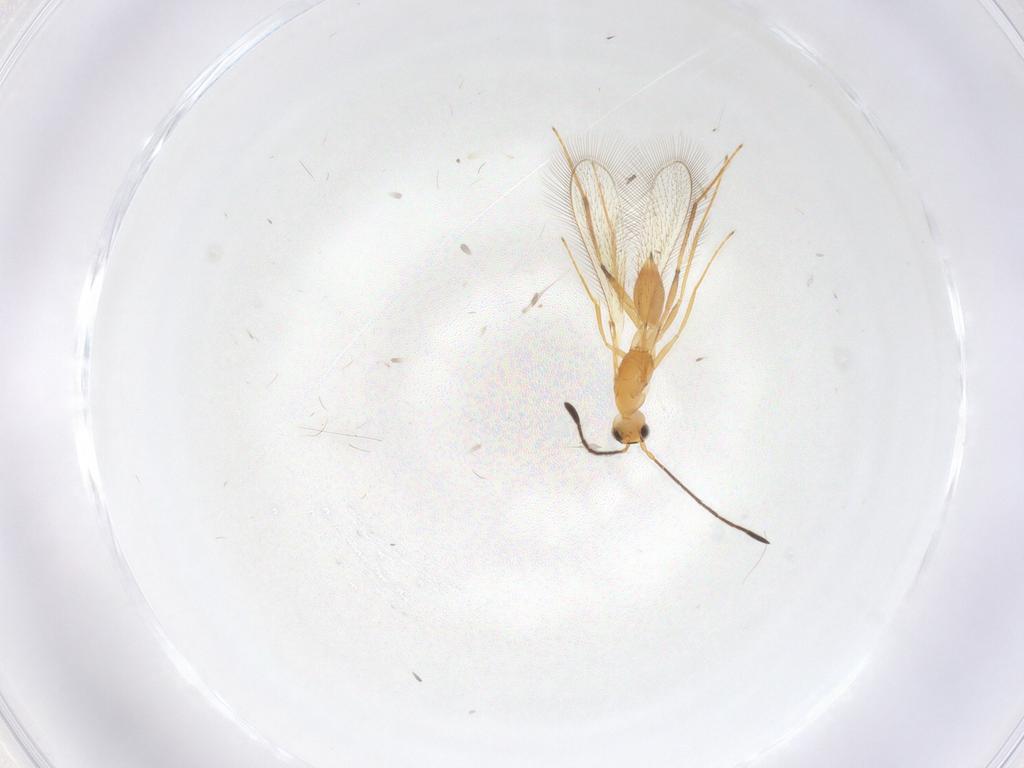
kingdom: Animalia
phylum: Arthropoda
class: Insecta
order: Hymenoptera
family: Mymaridae
